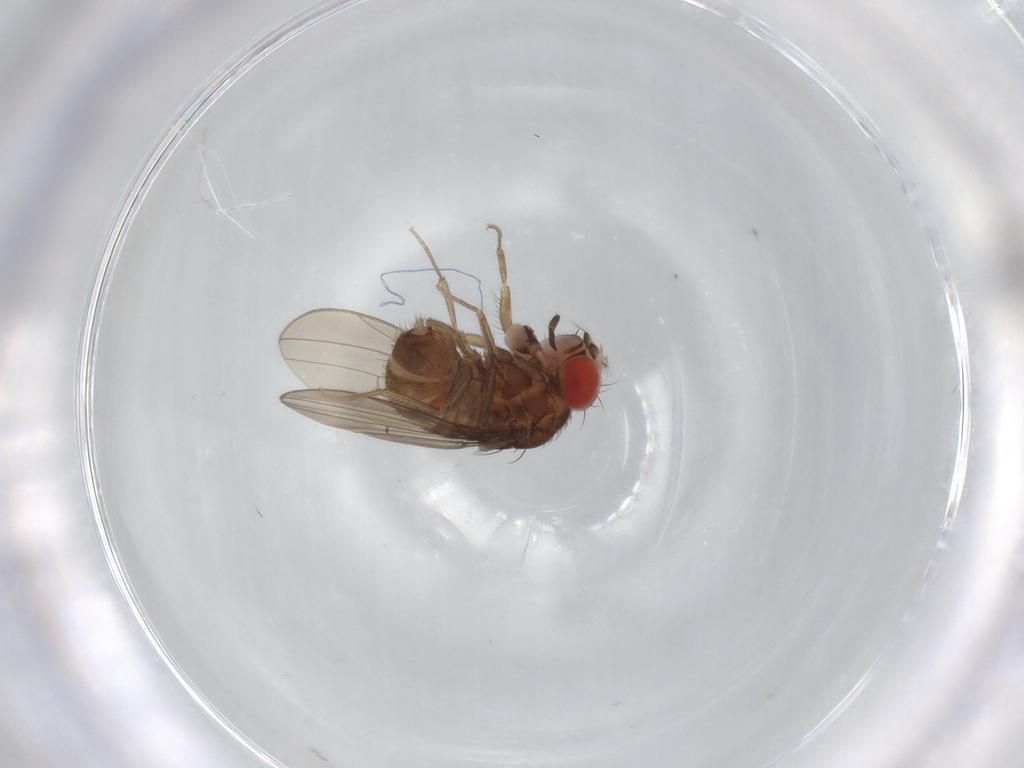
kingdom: Animalia
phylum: Arthropoda
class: Insecta
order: Diptera
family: Drosophilidae
